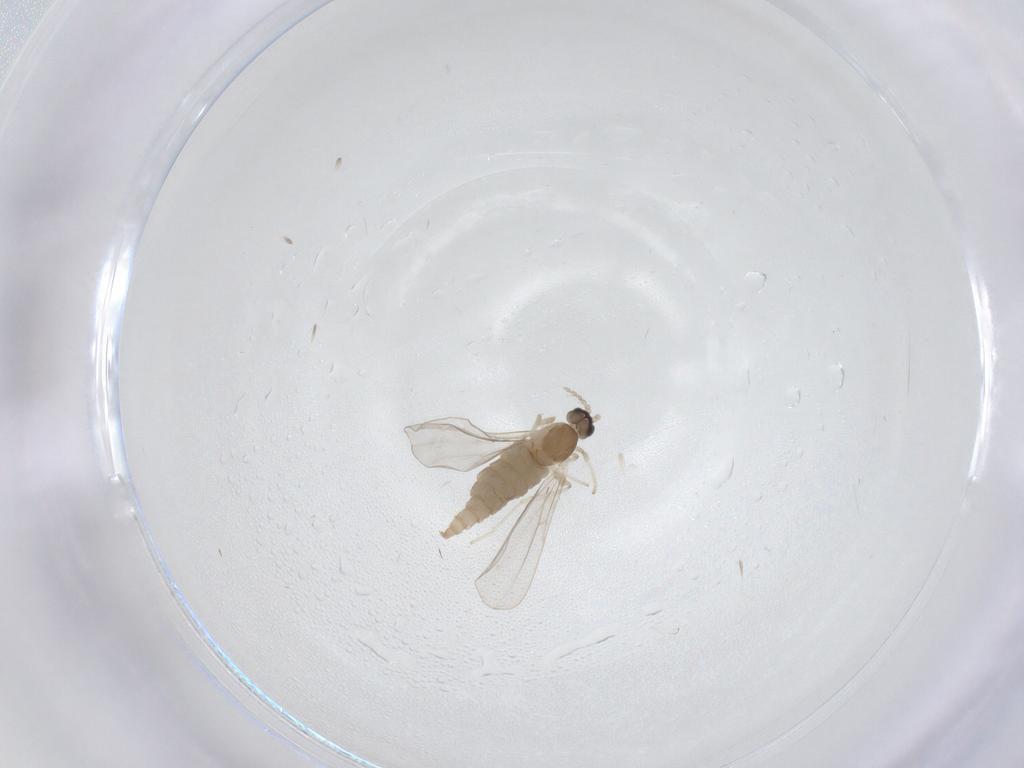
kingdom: Animalia
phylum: Arthropoda
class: Insecta
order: Diptera
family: Cecidomyiidae
